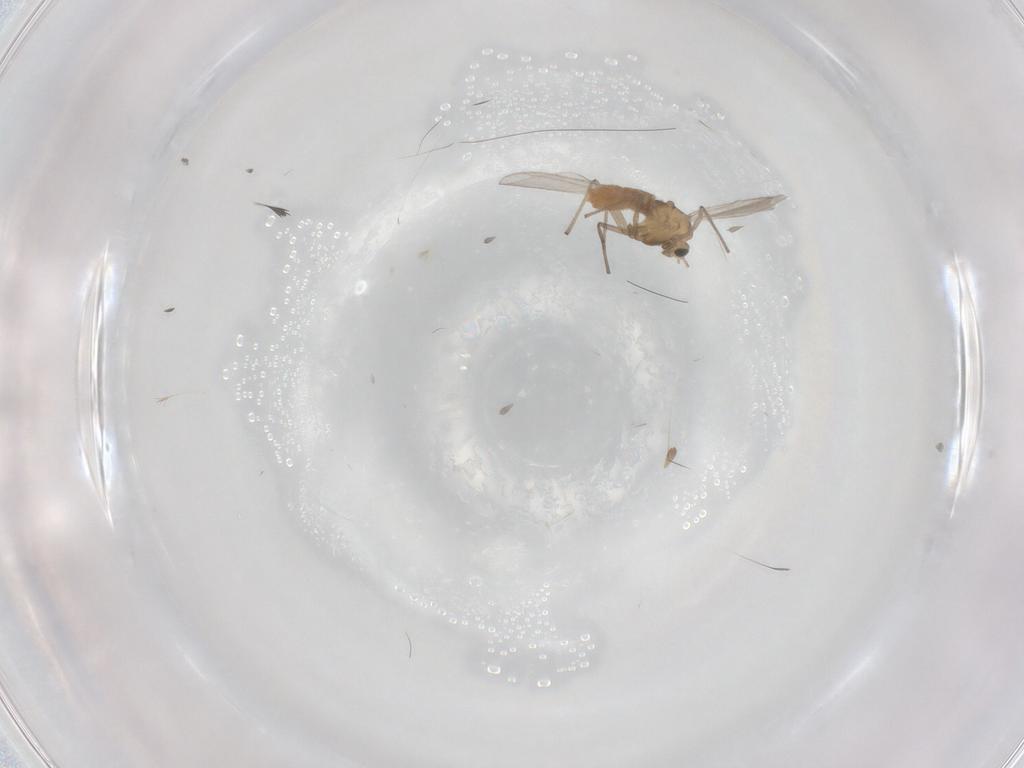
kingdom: Animalia
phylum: Arthropoda
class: Insecta
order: Diptera
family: Chironomidae
